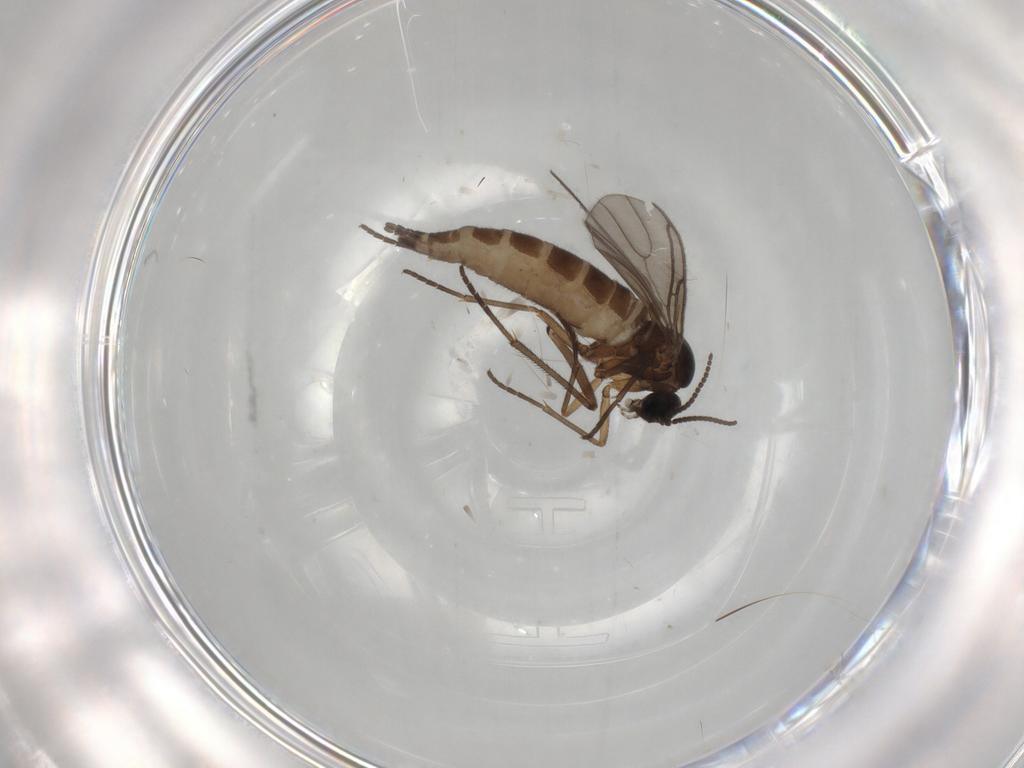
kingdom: Animalia
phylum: Arthropoda
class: Insecta
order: Diptera
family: Sciaridae
